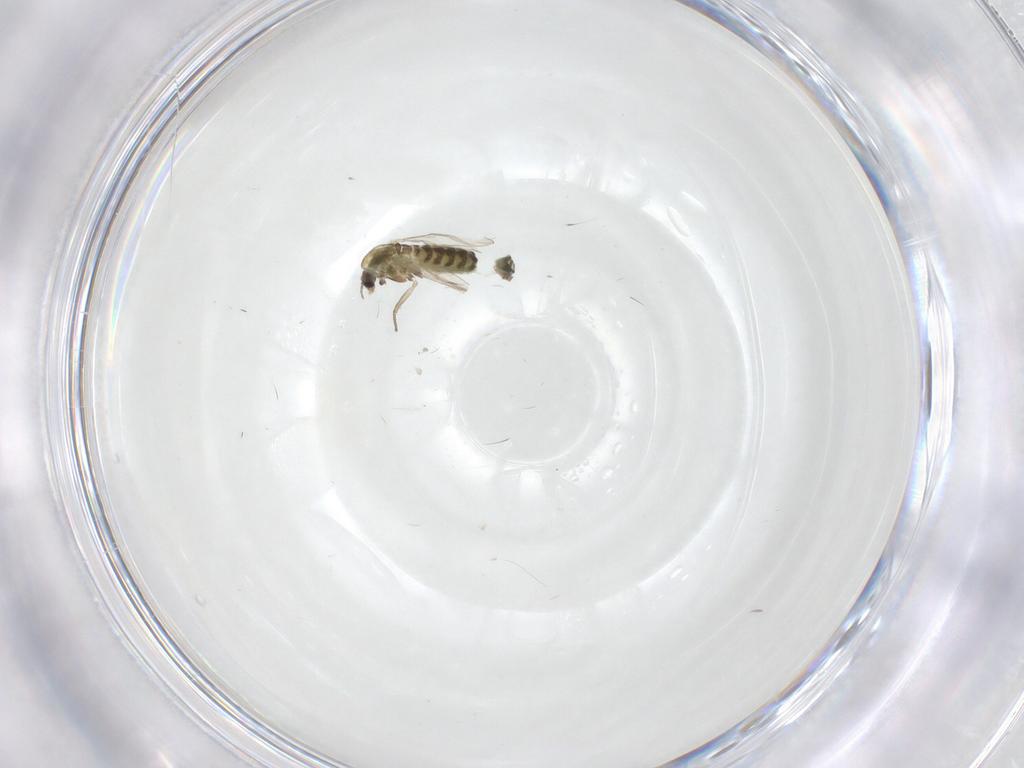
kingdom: Animalia
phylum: Arthropoda
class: Insecta
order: Diptera
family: Chironomidae
